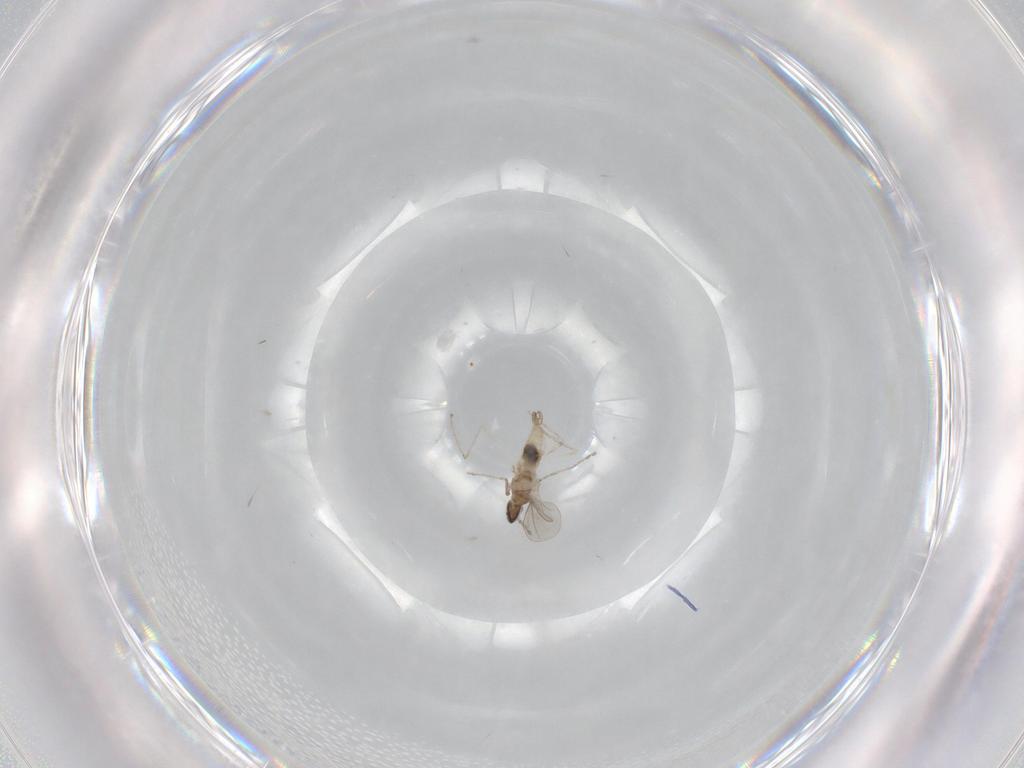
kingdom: Animalia
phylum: Arthropoda
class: Insecta
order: Diptera
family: Cecidomyiidae
